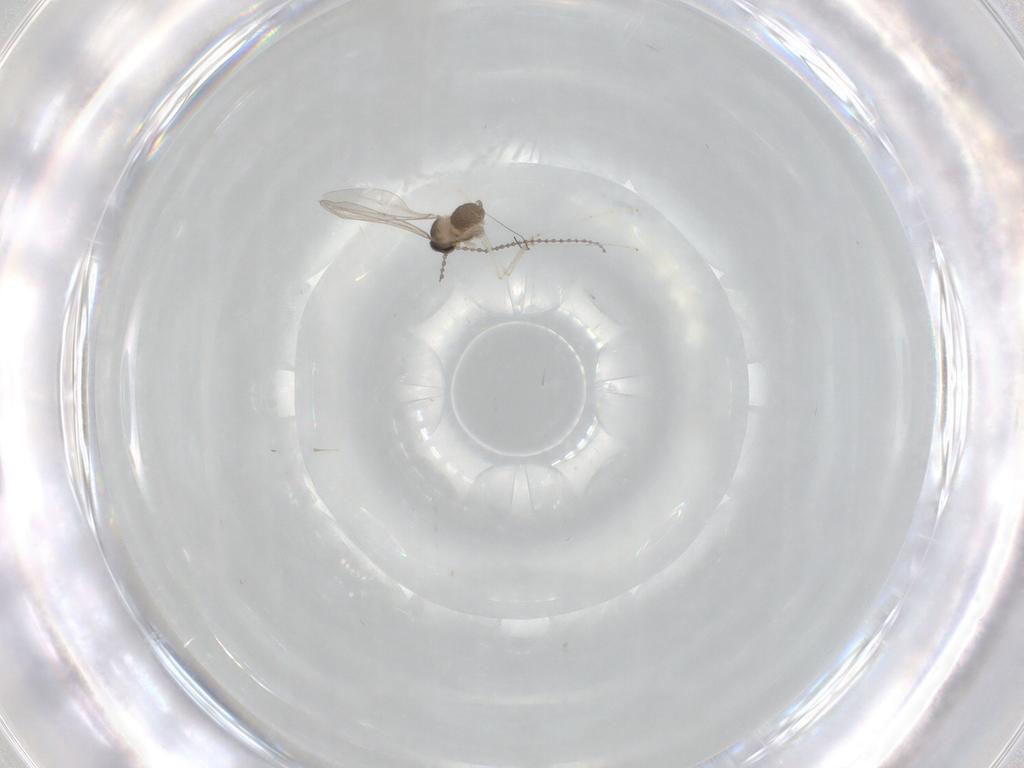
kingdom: Animalia
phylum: Arthropoda
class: Insecta
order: Diptera
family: Cecidomyiidae
